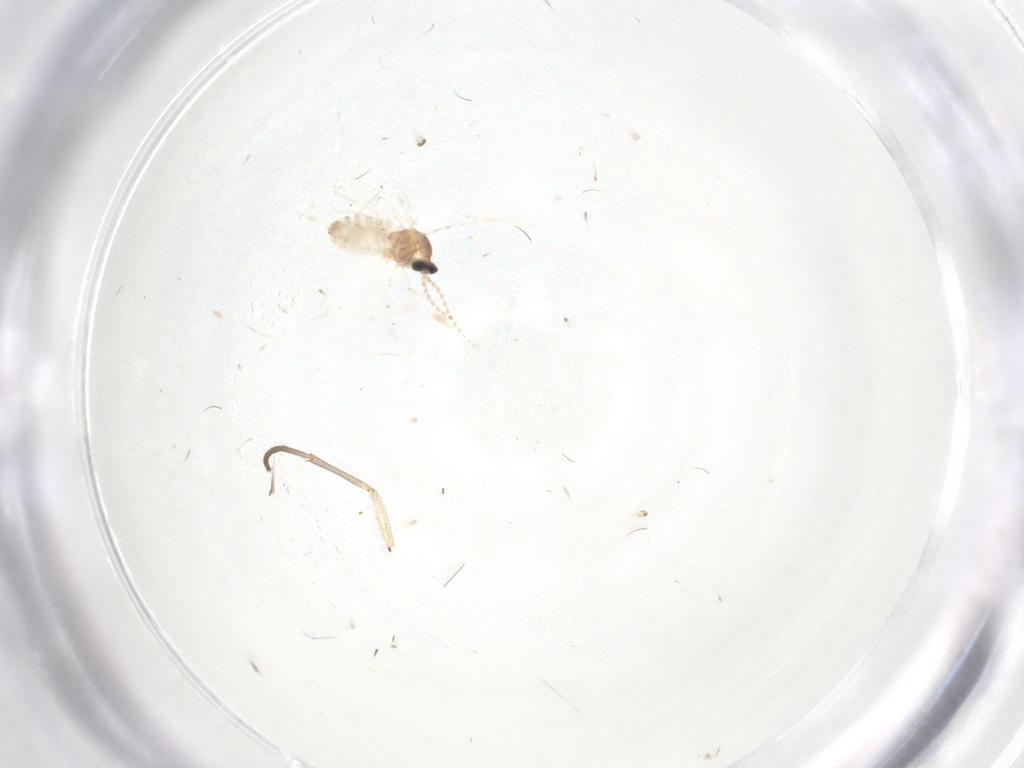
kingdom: Animalia
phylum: Arthropoda
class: Insecta
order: Diptera
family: Cecidomyiidae
